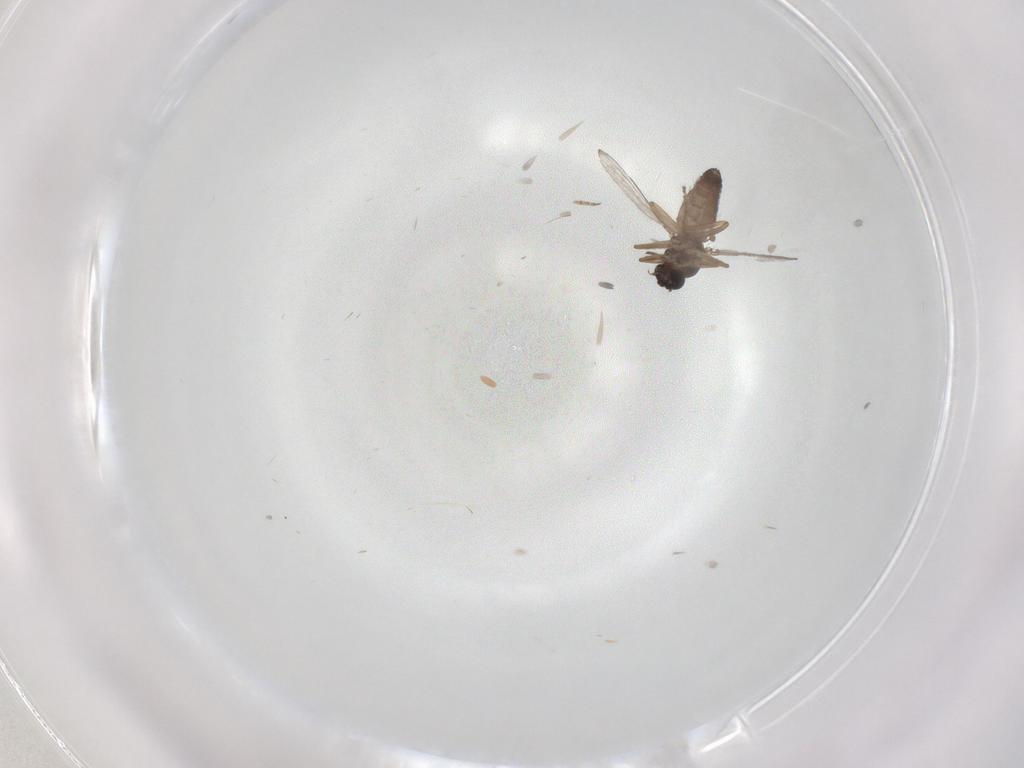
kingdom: Animalia
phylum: Arthropoda
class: Insecta
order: Diptera
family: Ceratopogonidae
